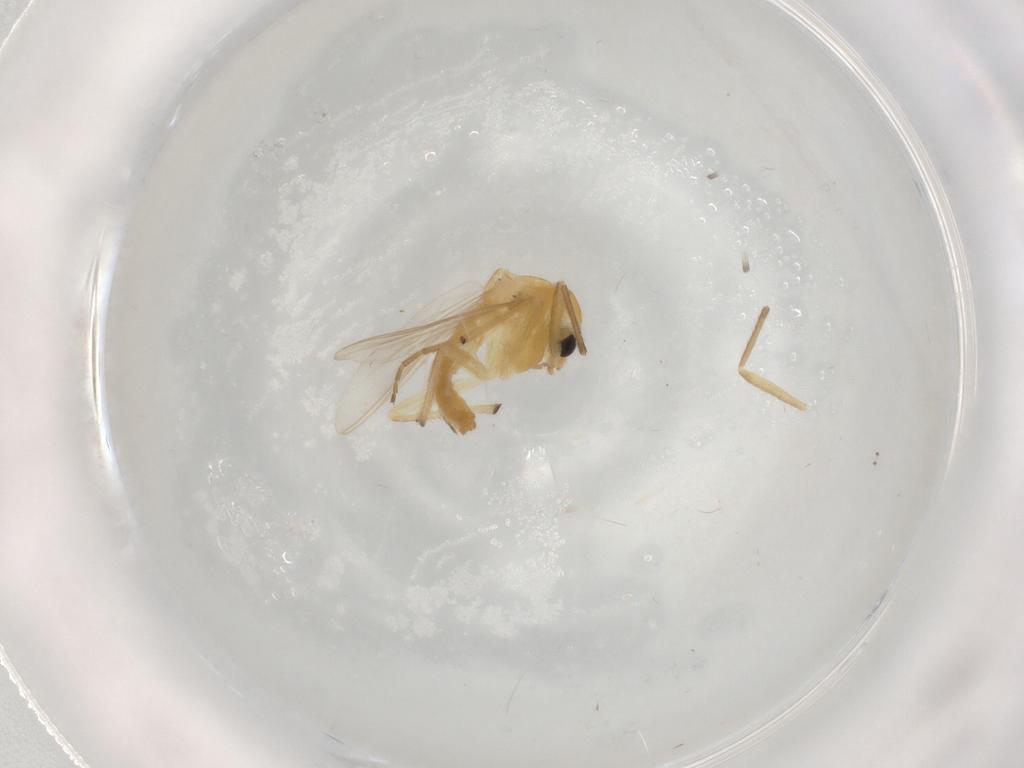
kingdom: Animalia
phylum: Arthropoda
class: Insecta
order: Diptera
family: Chironomidae
